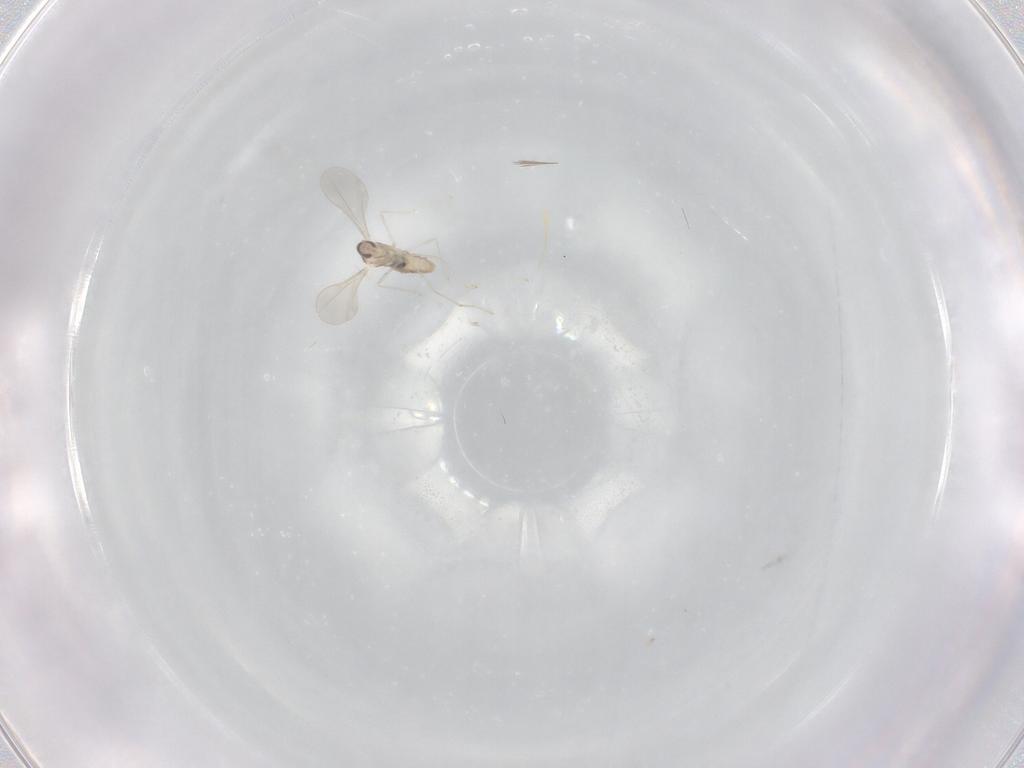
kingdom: Animalia
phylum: Arthropoda
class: Insecta
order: Diptera
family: Cecidomyiidae
